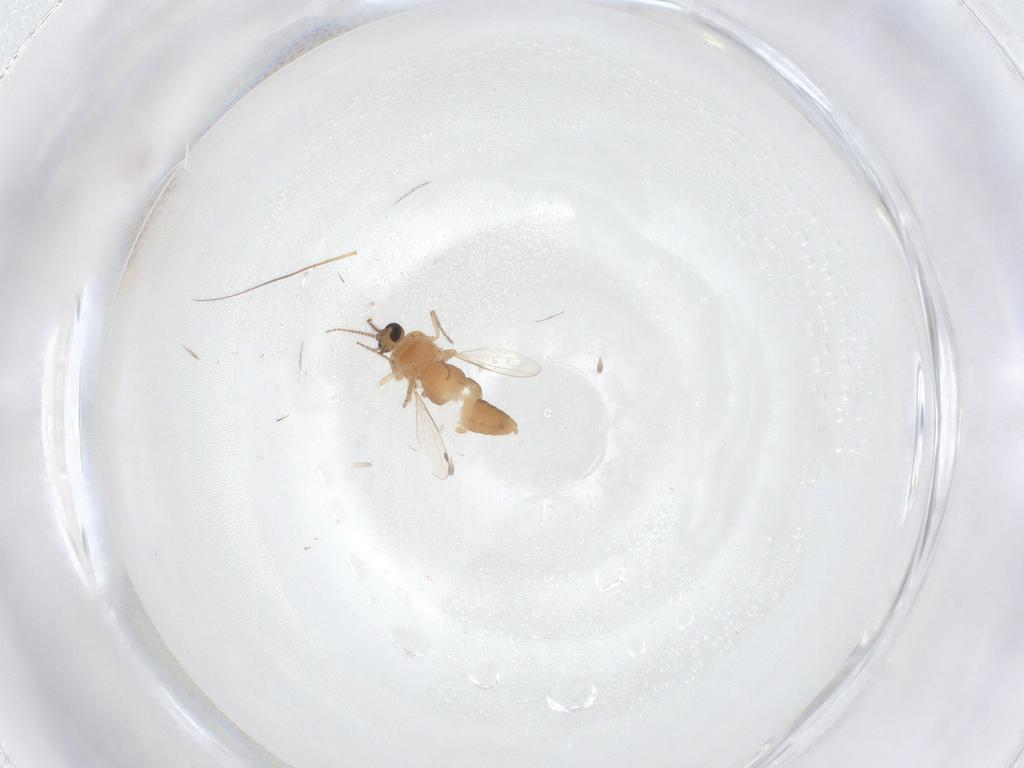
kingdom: Animalia
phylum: Arthropoda
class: Insecta
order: Diptera
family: Ceratopogonidae
